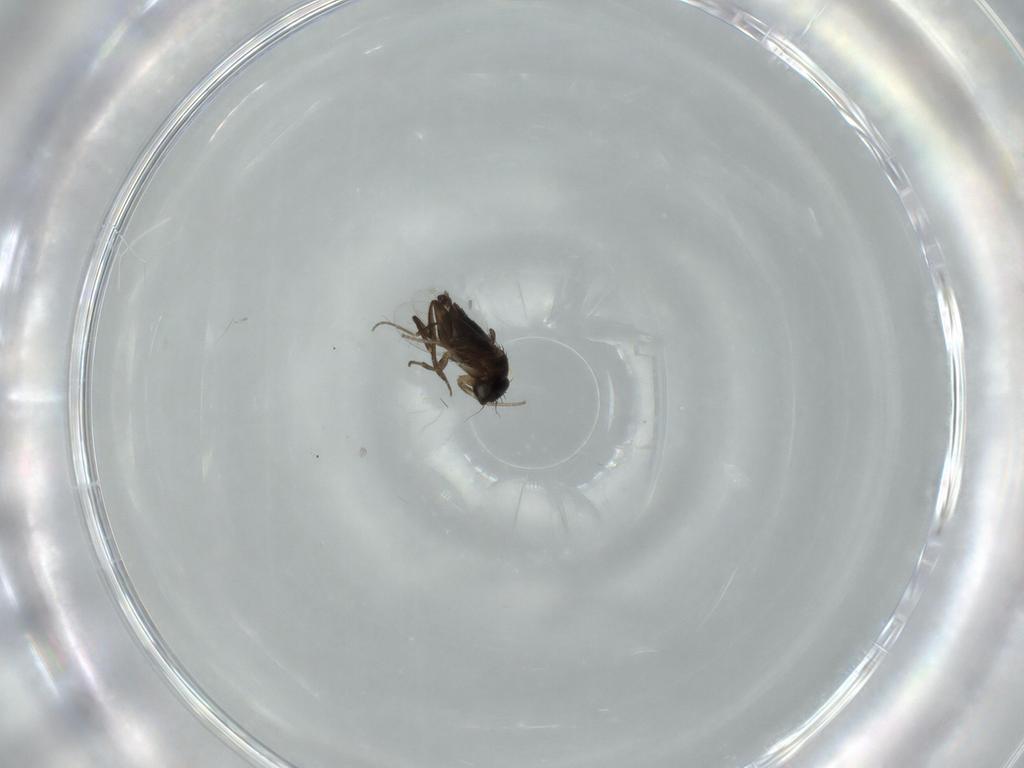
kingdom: Animalia
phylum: Arthropoda
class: Insecta
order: Diptera
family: Phoridae
